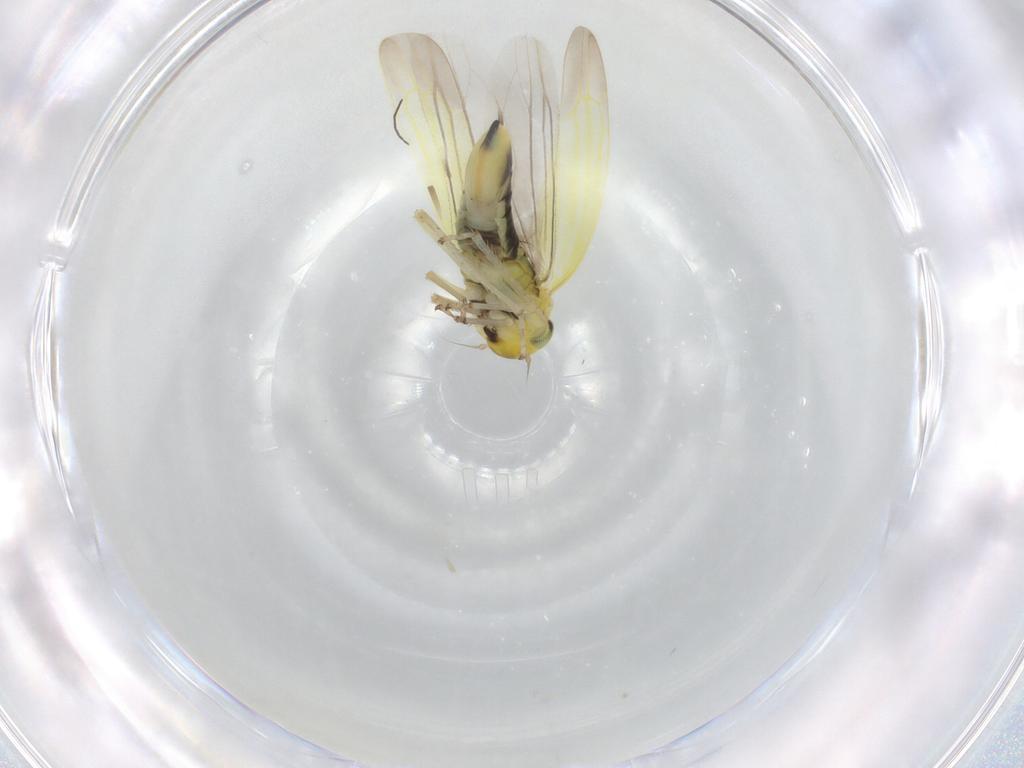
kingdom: Animalia
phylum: Arthropoda
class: Insecta
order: Hemiptera
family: Cicadellidae
